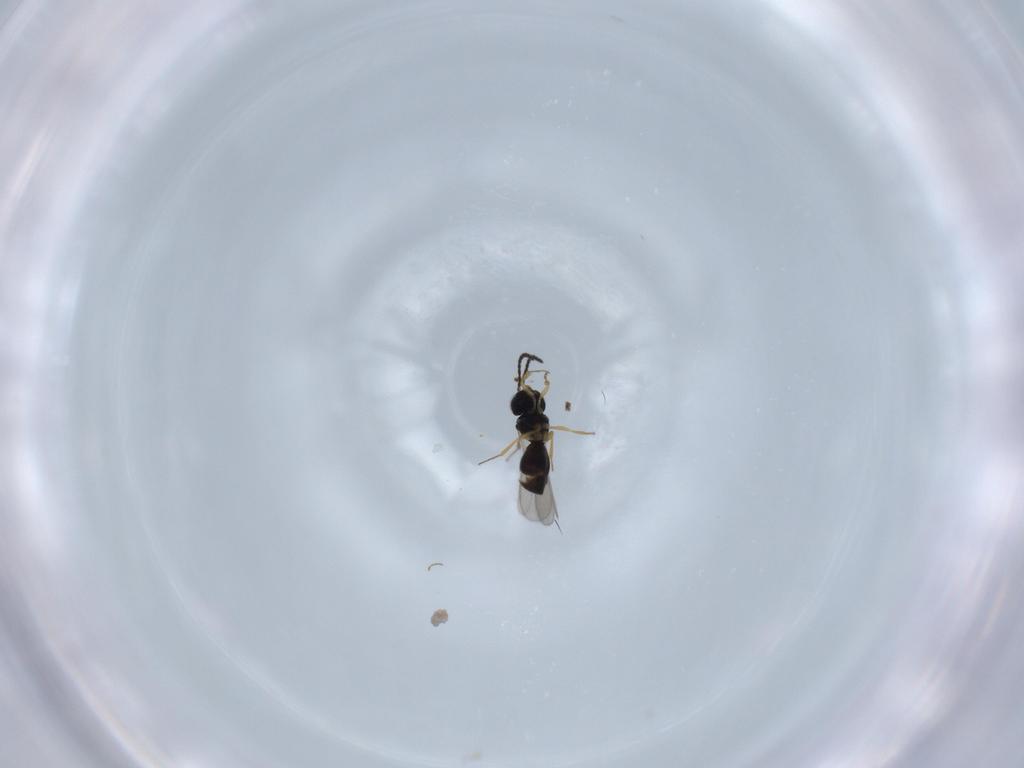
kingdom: Animalia
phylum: Arthropoda
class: Insecta
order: Hymenoptera
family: Scelionidae
